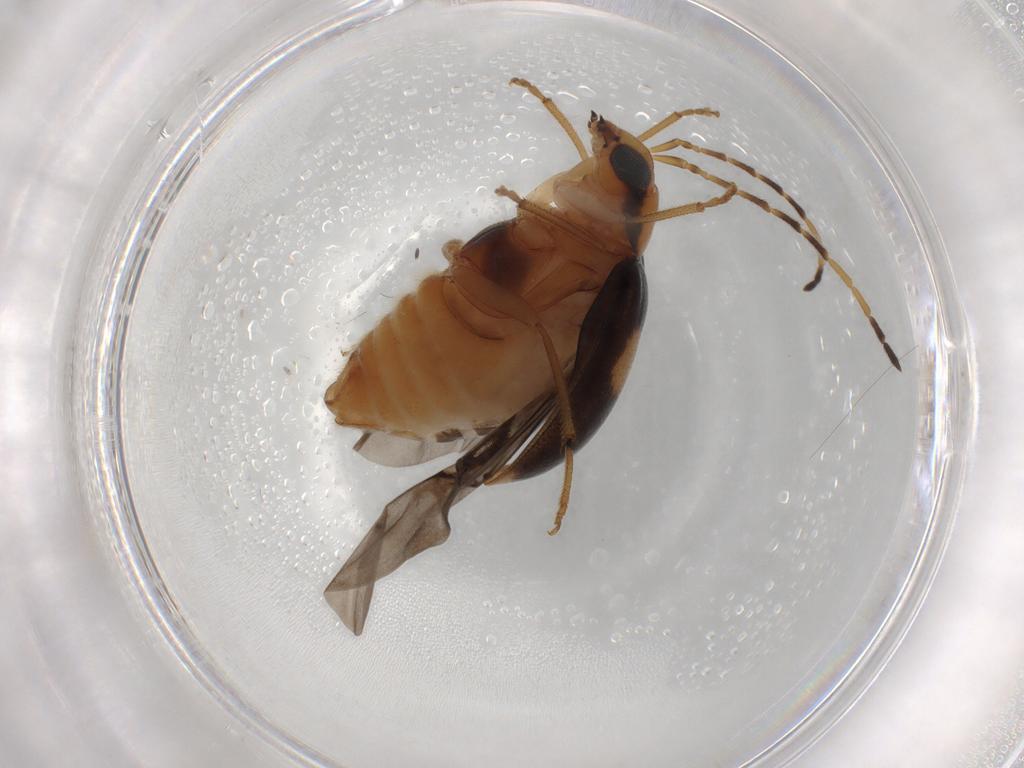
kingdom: Animalia
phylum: Arthropoda
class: Insecta
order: Coleoptera
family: Chrysomelidae
